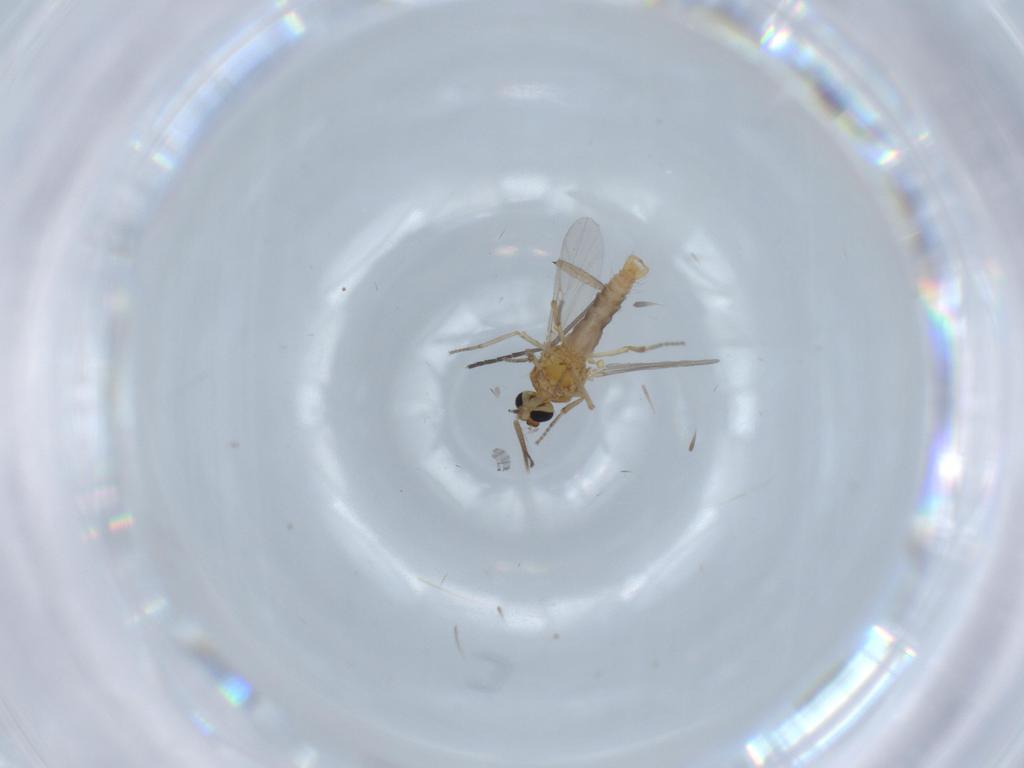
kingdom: Animalia
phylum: Arthropoda
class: Insecta
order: Diptera
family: Ceratopogonidae
